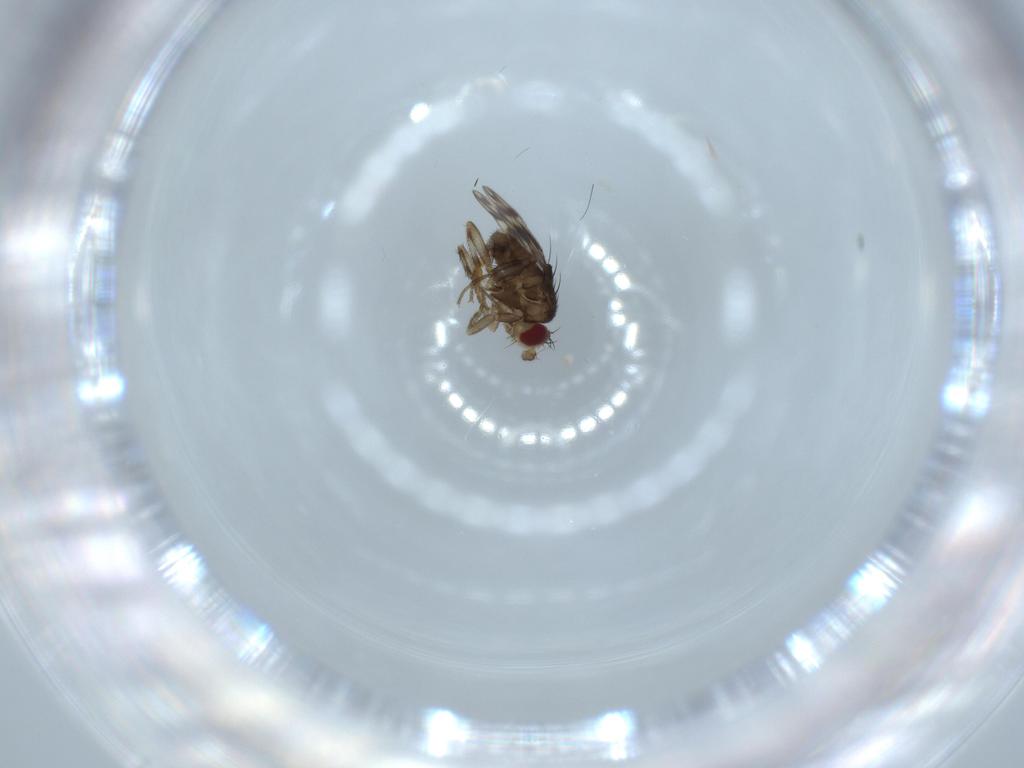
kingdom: Animalia
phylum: Arthropoda
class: Insecta
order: Diptera
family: Sphaeroceridae
